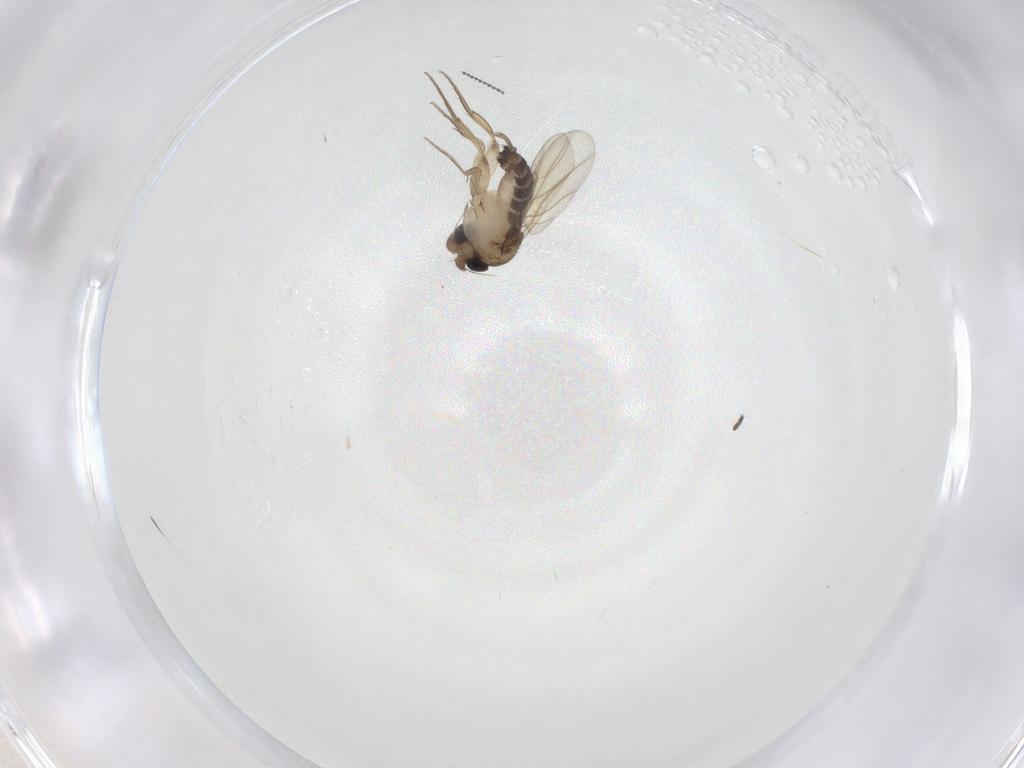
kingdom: Animalia
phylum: Arthropoda
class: Insecta
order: Diptera
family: Cecidomyiidae
